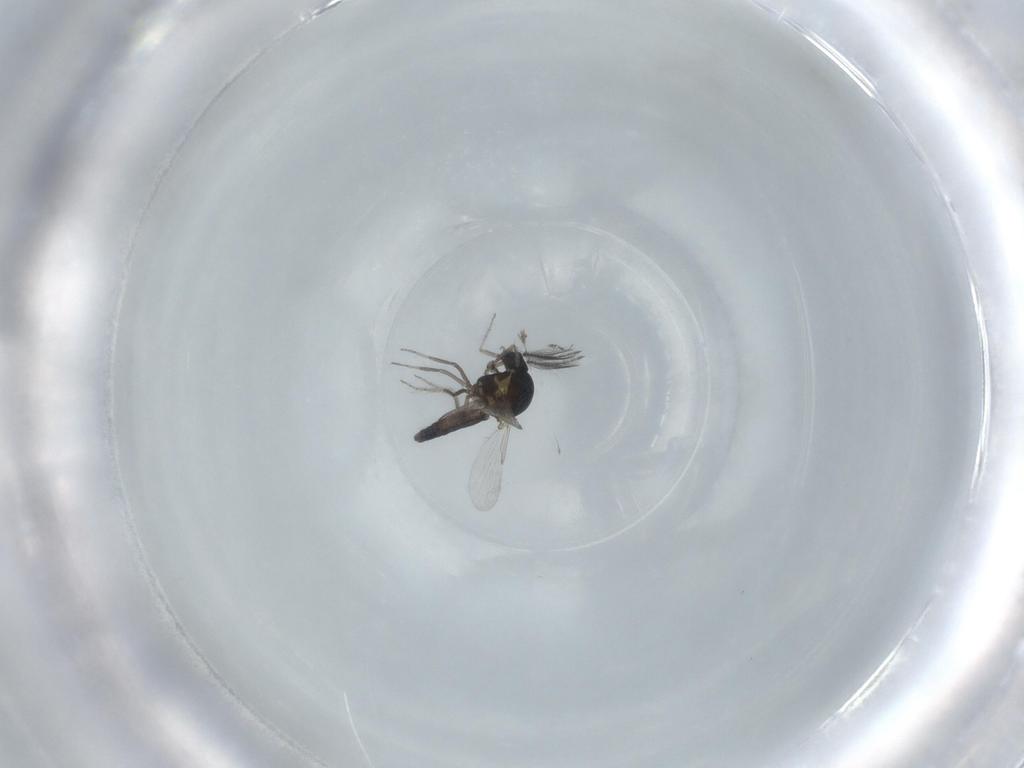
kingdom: Animalia
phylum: Arthropoda
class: Insecta
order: Diptera
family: Ceratopogonidae
